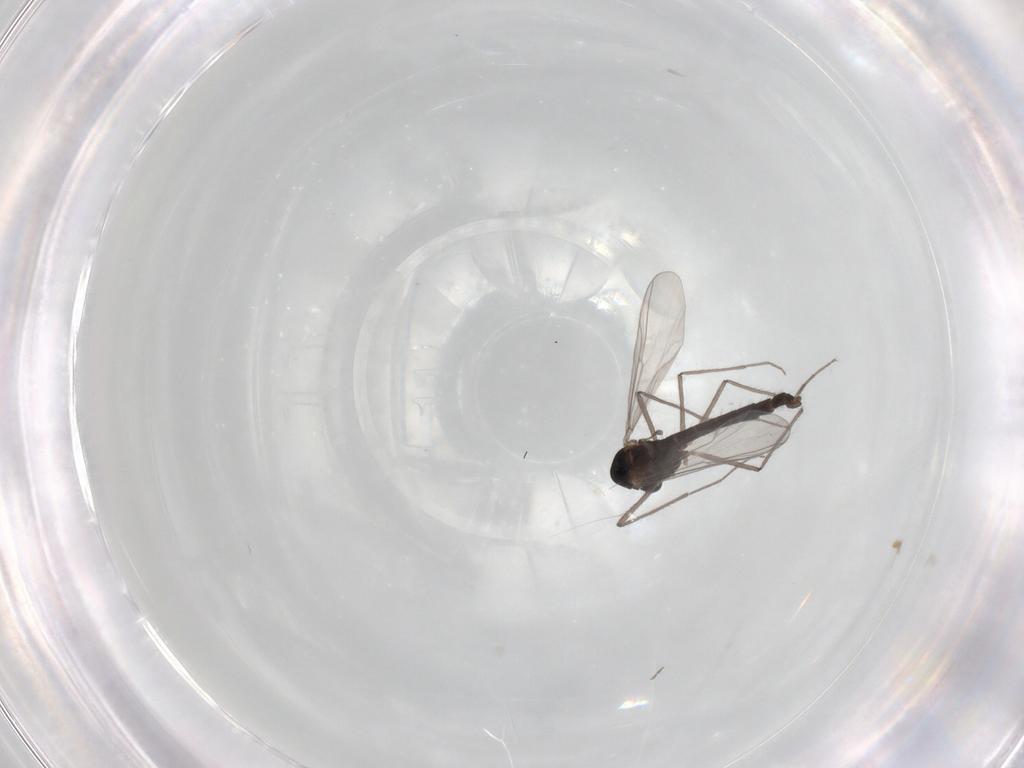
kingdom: Animalia
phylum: Arthropoda
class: Insecta
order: Diptera
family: Chironomidae
